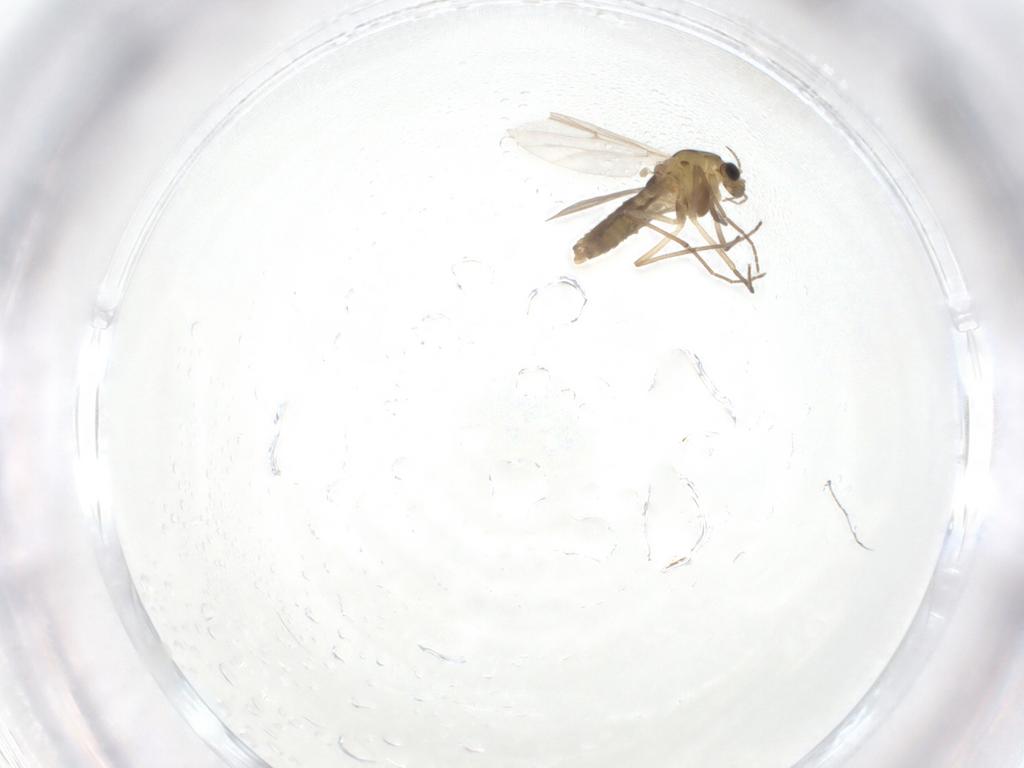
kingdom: Animalia
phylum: Arthropoda
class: Insecta
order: Diptera
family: Chironomidae
